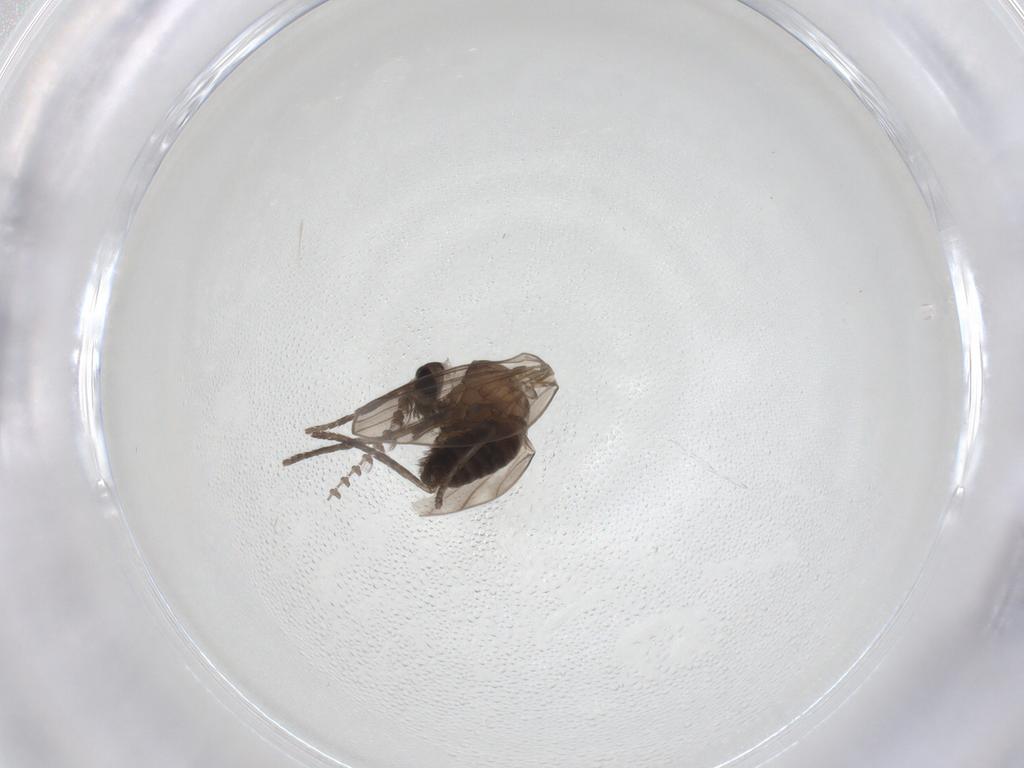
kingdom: Animalia
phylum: Arthropoda
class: Insecta
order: Diptera
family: Psychodidae
